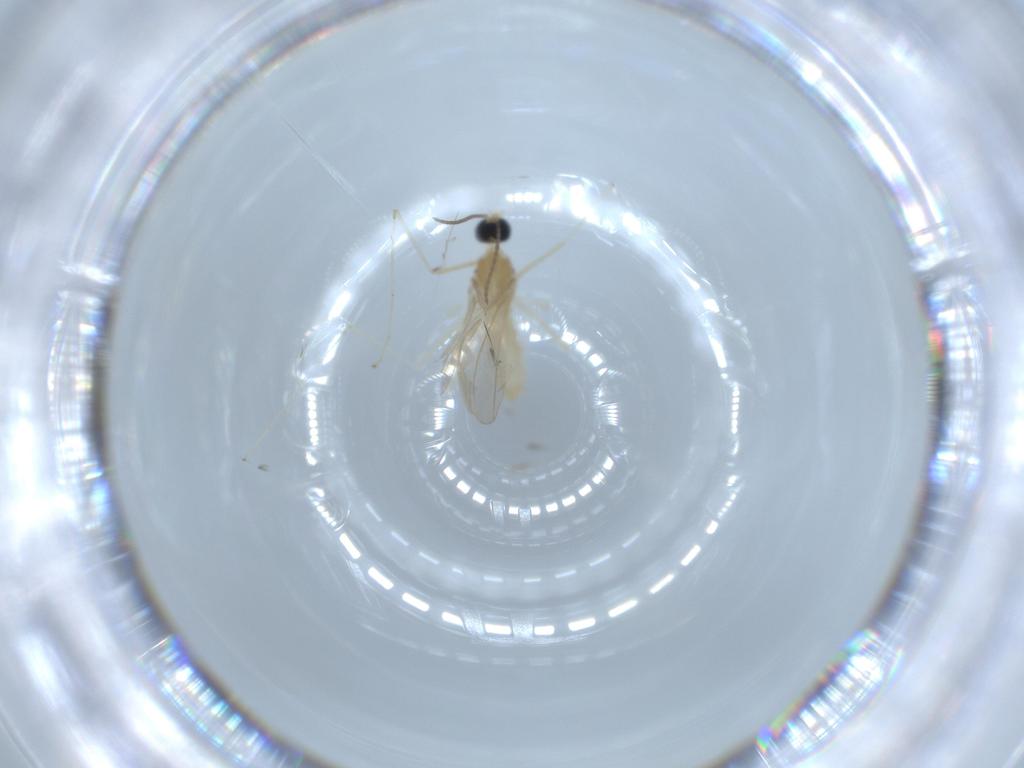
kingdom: Animalia
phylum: Arthropoda
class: Insecta
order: Diptera
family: Cecidomyiidae
